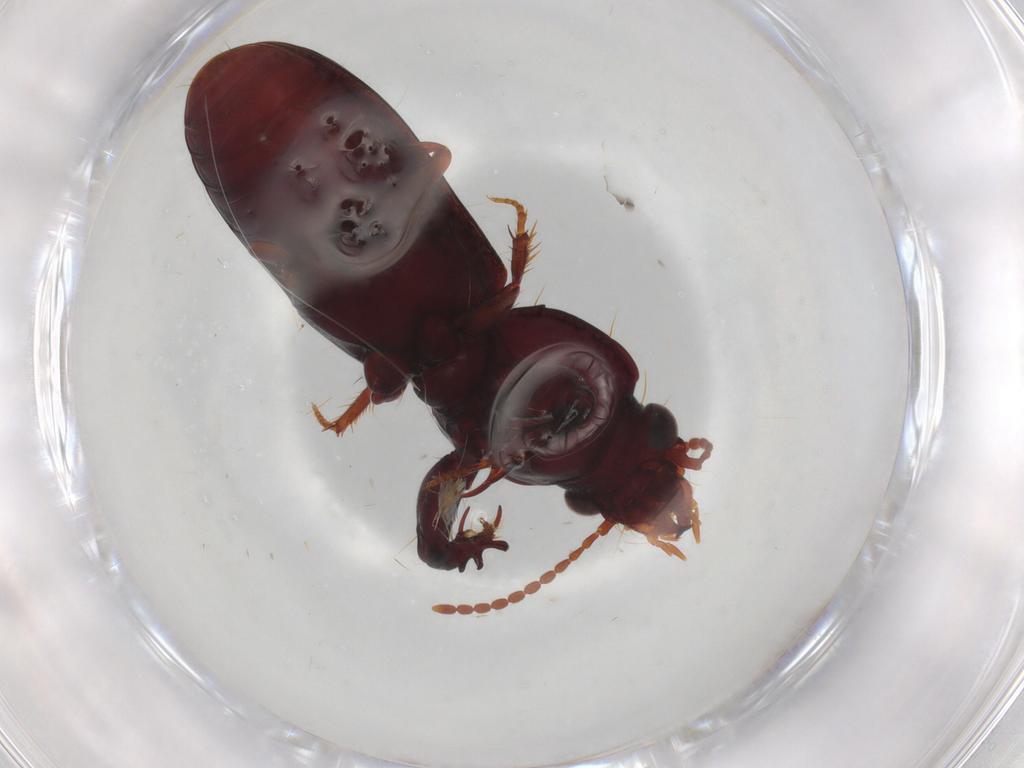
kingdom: Animalia
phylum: Arthropoda
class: Insecta
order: Coleoptera
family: Carabidae
